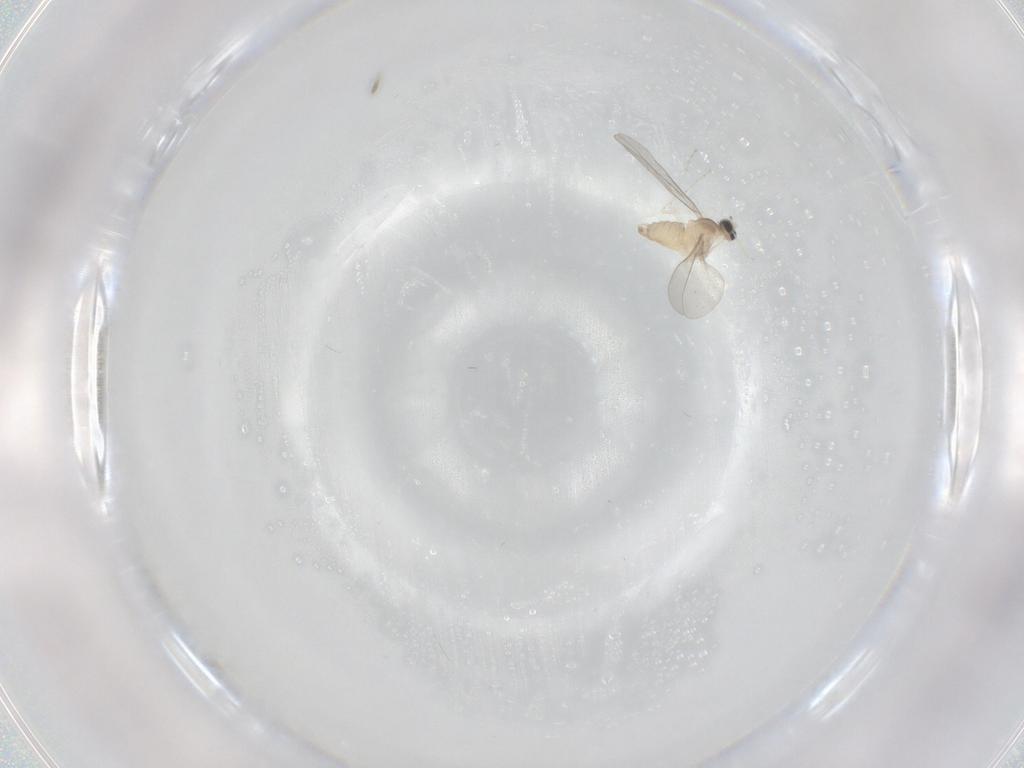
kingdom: Animalia
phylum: Arthropoda
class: Insecta
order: Diptera
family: Cecidomyiidae
